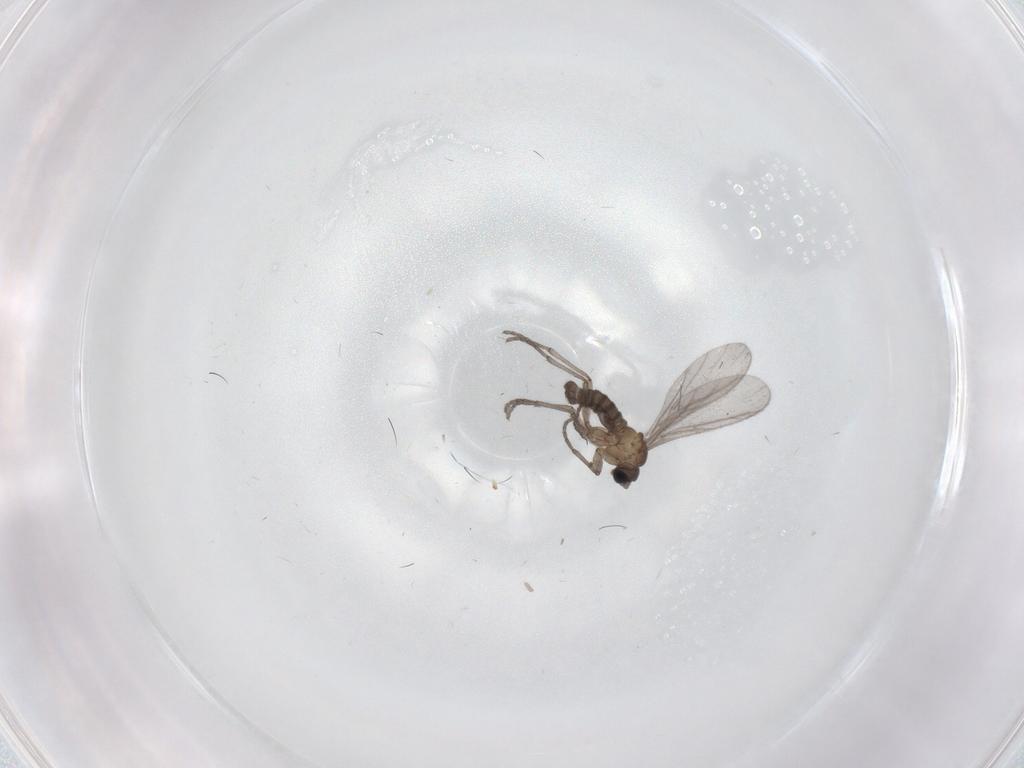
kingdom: Animalia
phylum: Arthropoda
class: Insecta
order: Diptera
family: Sciaridae
